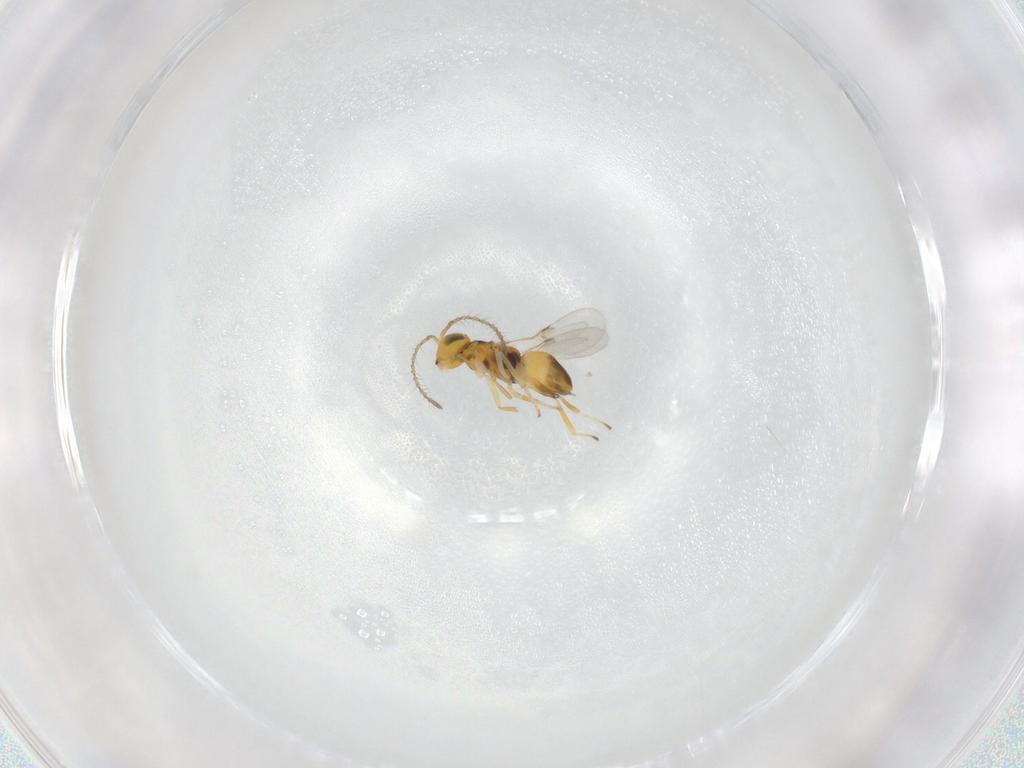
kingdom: Animalia
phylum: Arthropoda
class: Insecta
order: Hymenoptera
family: Encyrtidae
